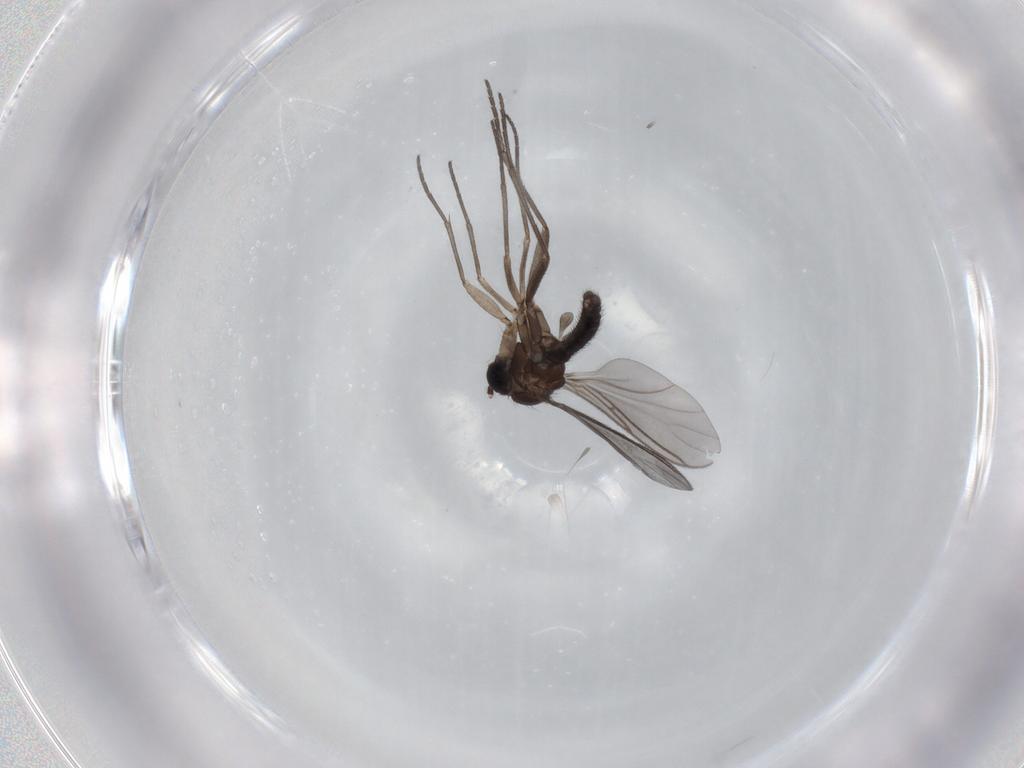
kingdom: Animalia
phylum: Arthropoda
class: Insecta
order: Diptera
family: Sciaridae
